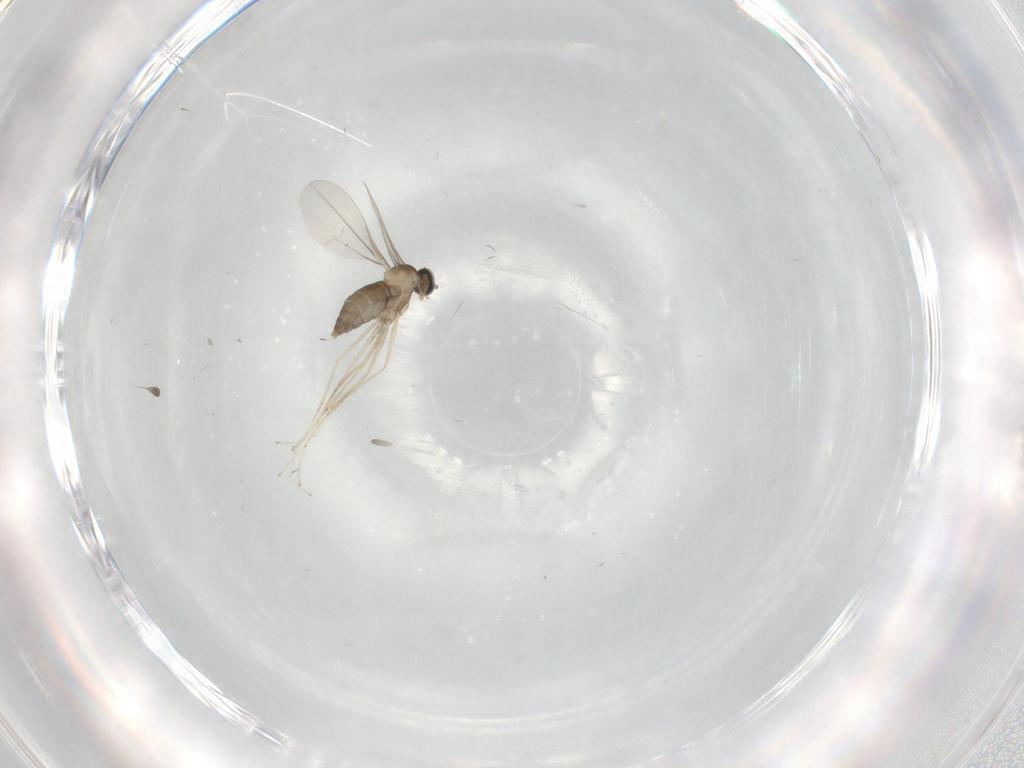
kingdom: Animalia
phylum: Arthropoda
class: Insecta
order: Diptera
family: Cecidomyiidae
